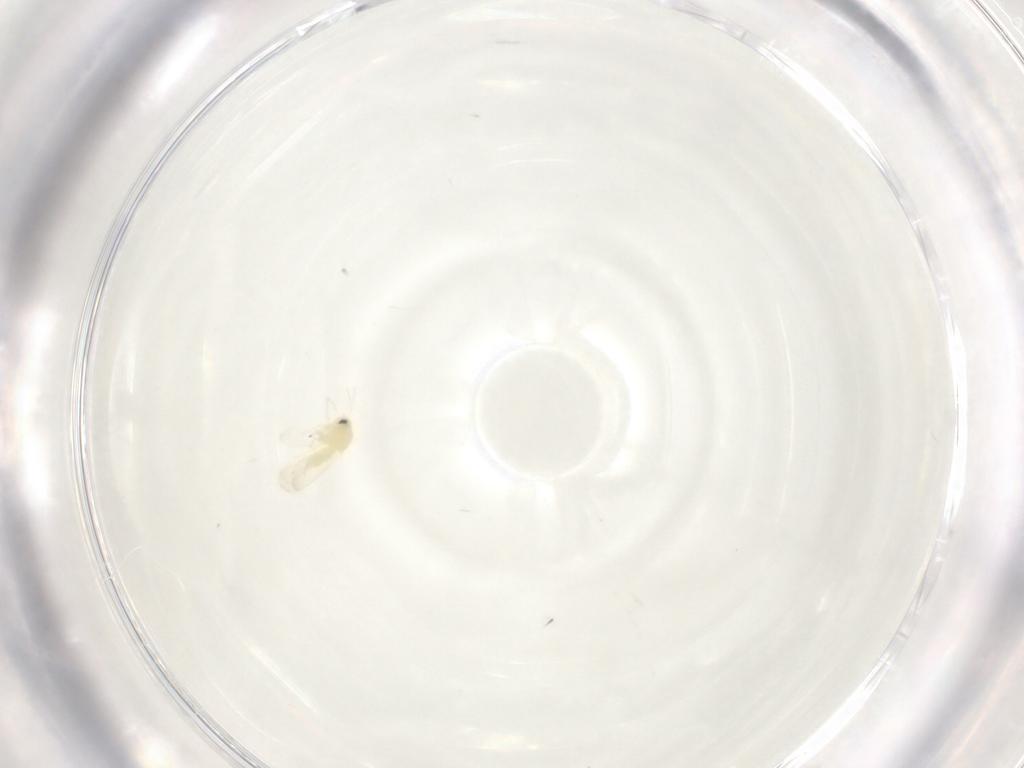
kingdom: Animalia
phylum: Arthropoda
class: Insecta
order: Hemiptera
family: Aleyrodidae
